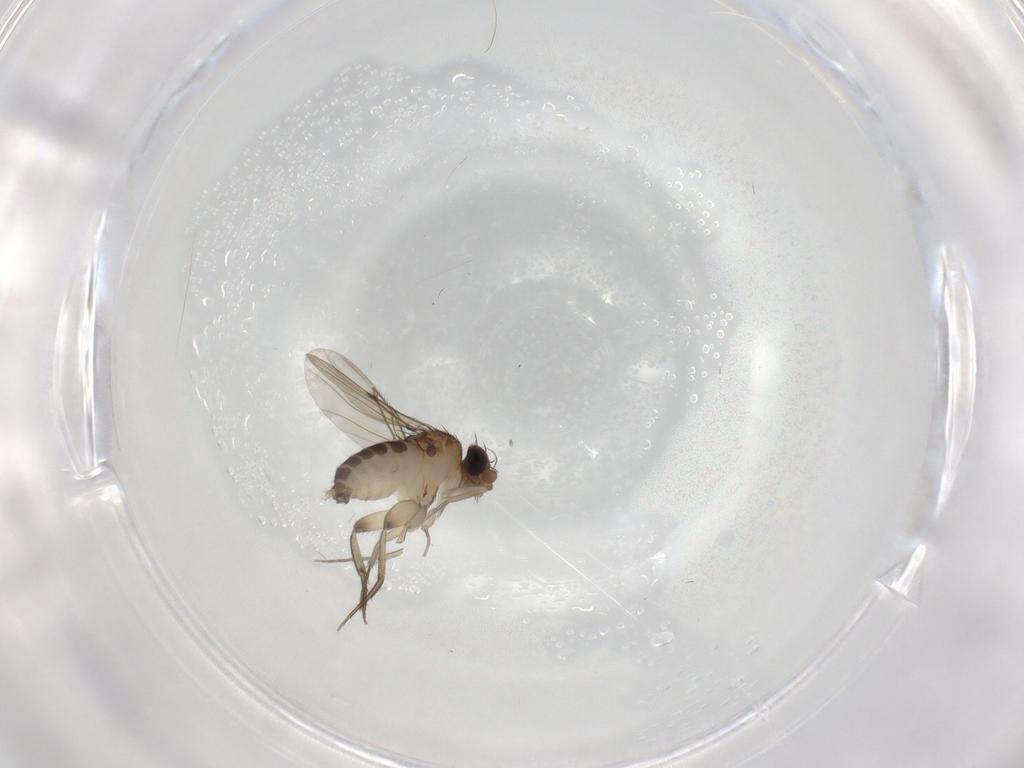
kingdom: Animalia
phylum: Arthropoda
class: Insecta
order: Diptera
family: Phoridae
